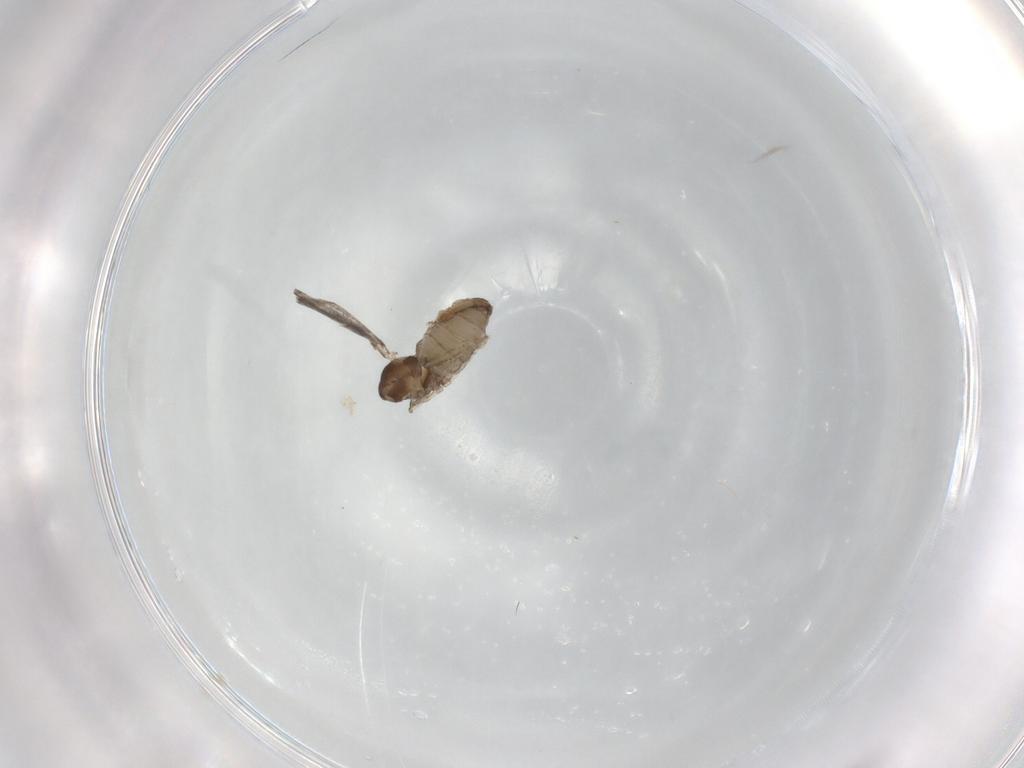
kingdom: Animalia
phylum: Arthropoda
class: Insecta
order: Diptera
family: Cecidomyiidae
